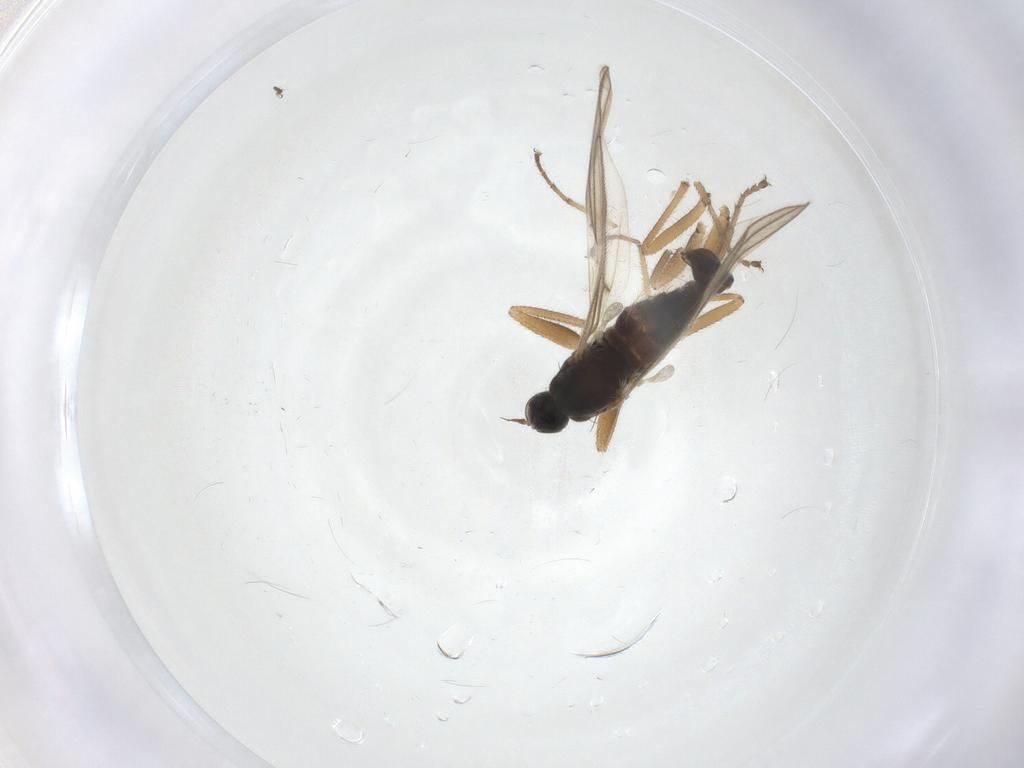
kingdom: Animalia
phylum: Arthropoda
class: Insecta
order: Diptera
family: Hybotidae
